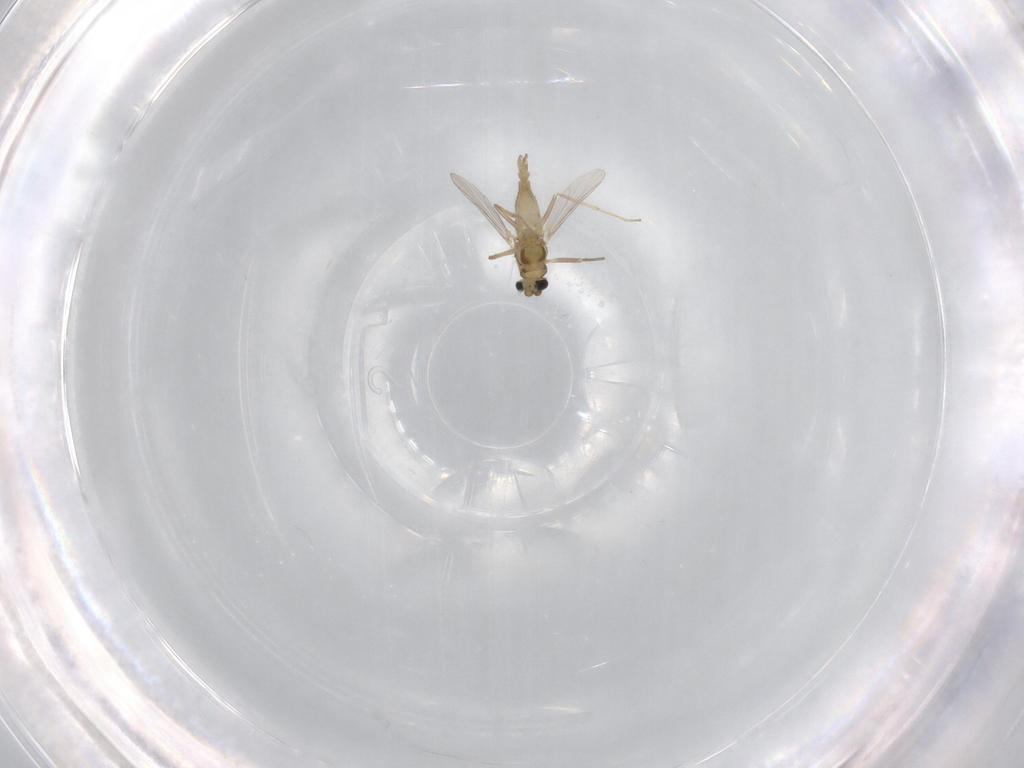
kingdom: Animalia
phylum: Arthropoda
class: Insecta
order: Diptera
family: Chironomidae
